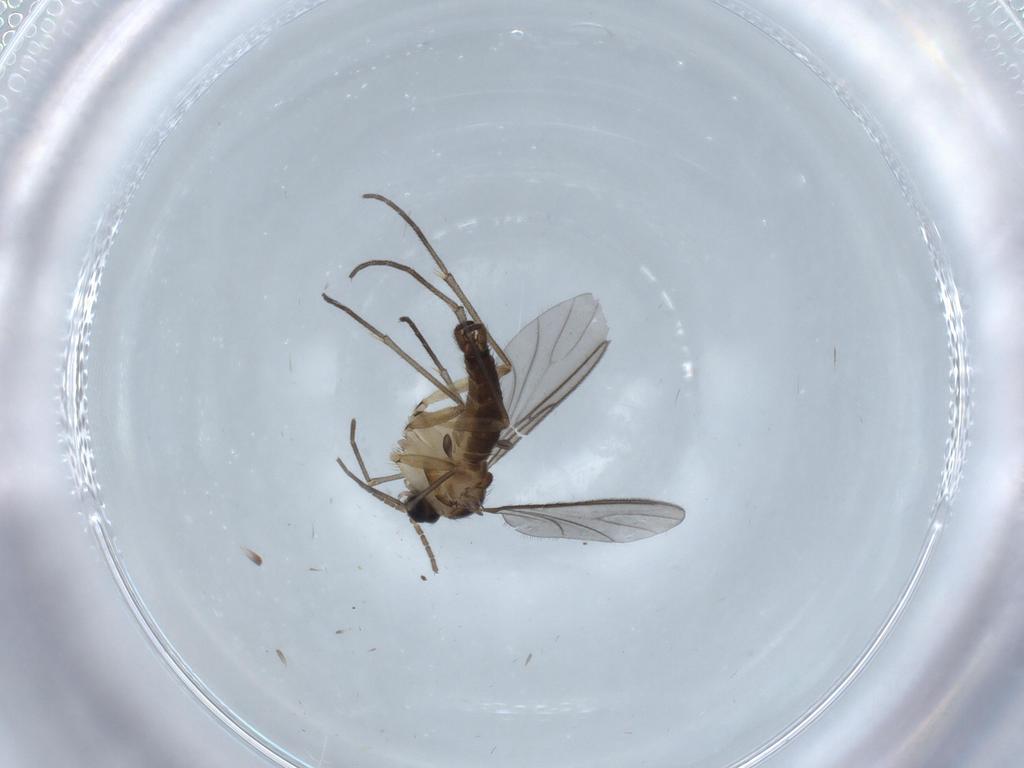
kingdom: Animalia
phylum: Arthropoda
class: Insecta
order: Diptera
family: Sciaridae
